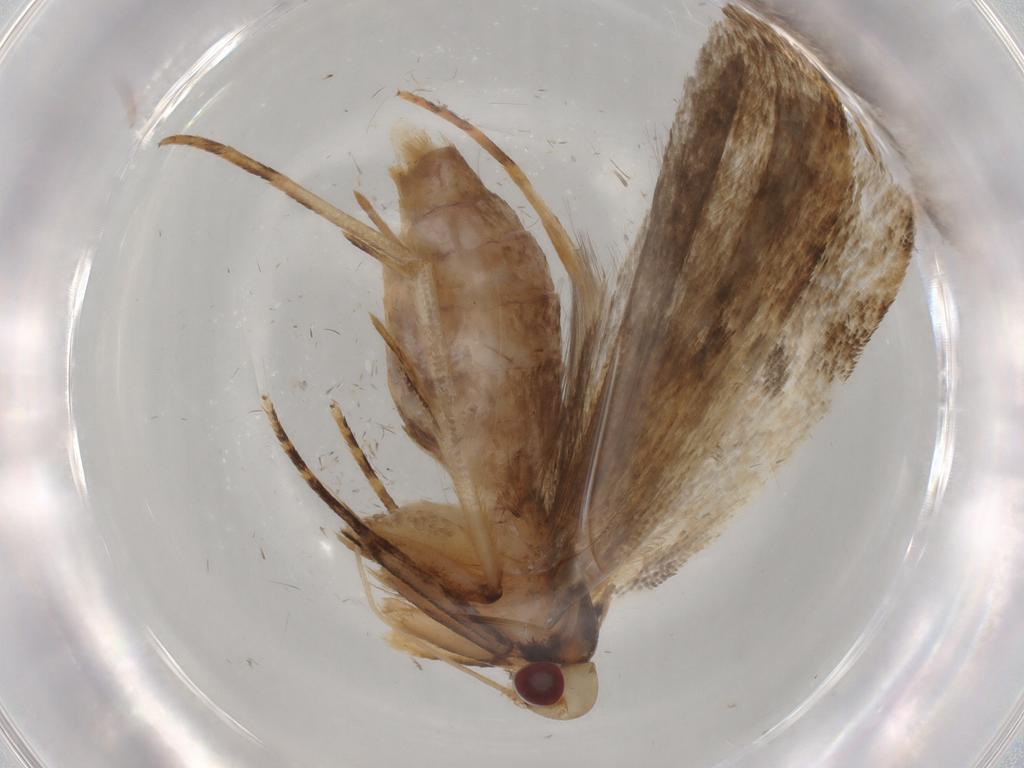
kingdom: Animalia
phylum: Arthropoda
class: Insecta
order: Lepidoptera
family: Gelechiidae
